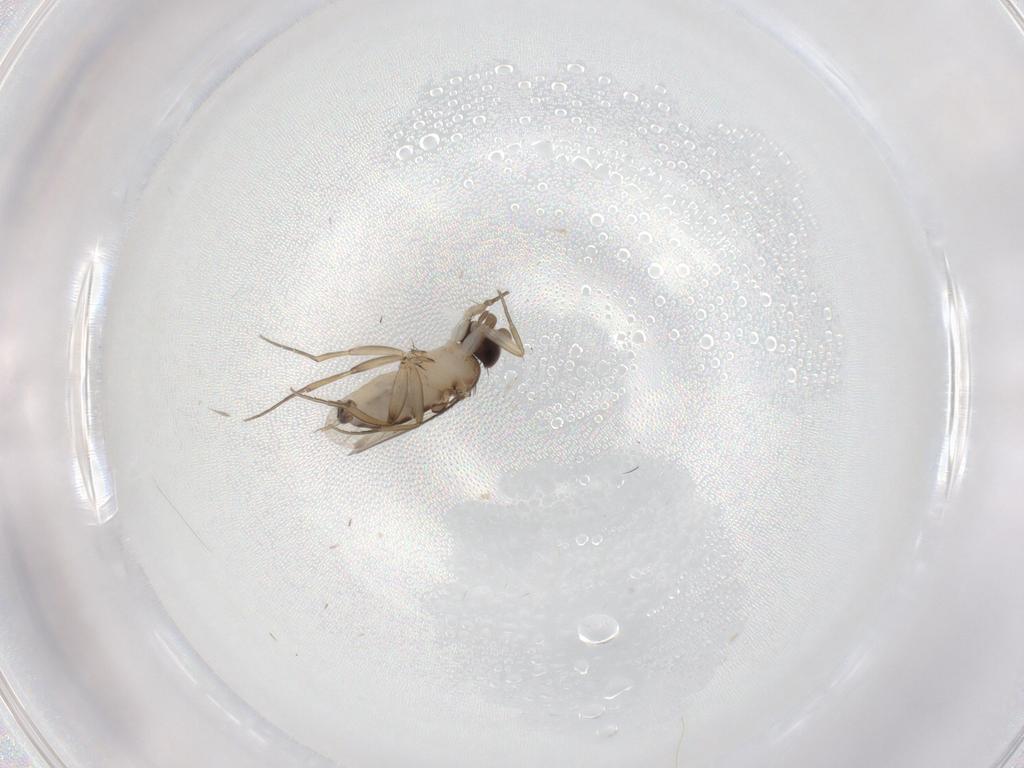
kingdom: Animalia
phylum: Arthropoda
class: Insecta
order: Diptera
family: Phoridae
